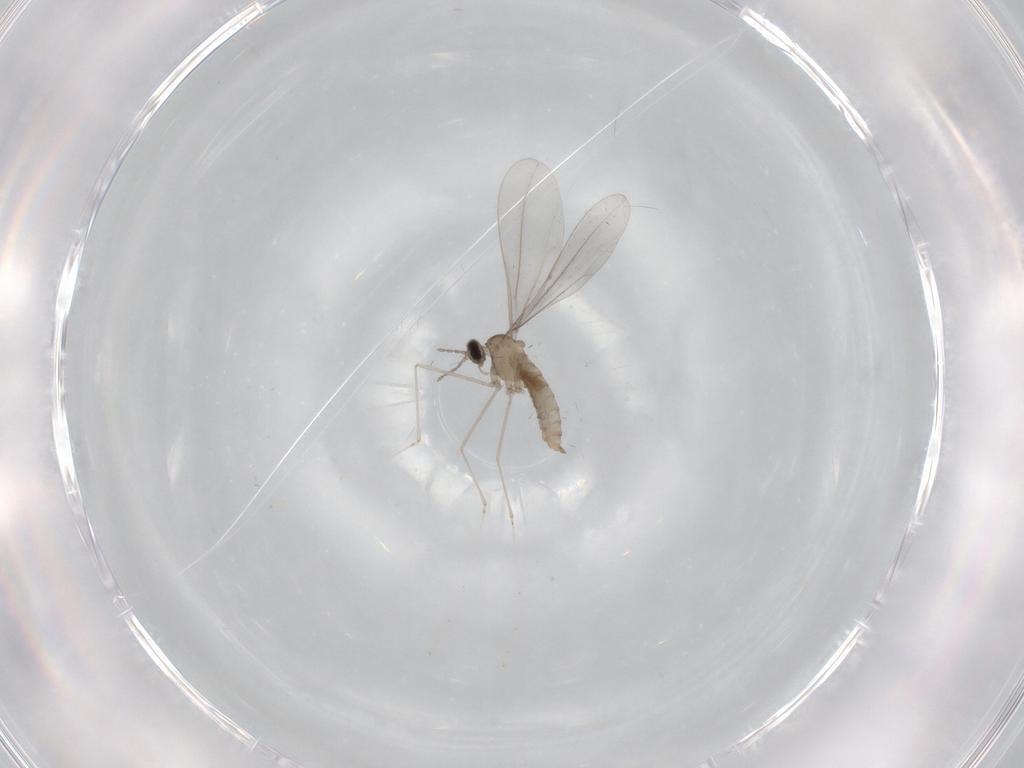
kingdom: Animalia
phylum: Arthropoda
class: Insecta
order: Diptera
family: Cecidomyiidae
